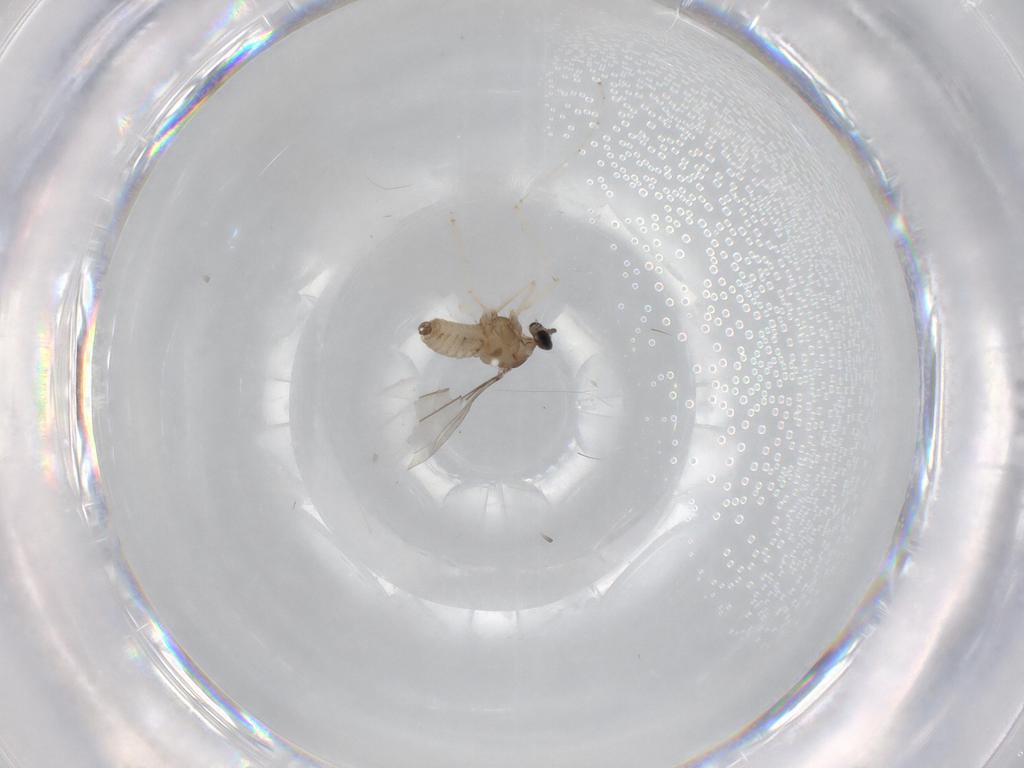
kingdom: Animalia
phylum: Arthropoda
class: Insecta
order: Diptera
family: Cecidomyiidae
